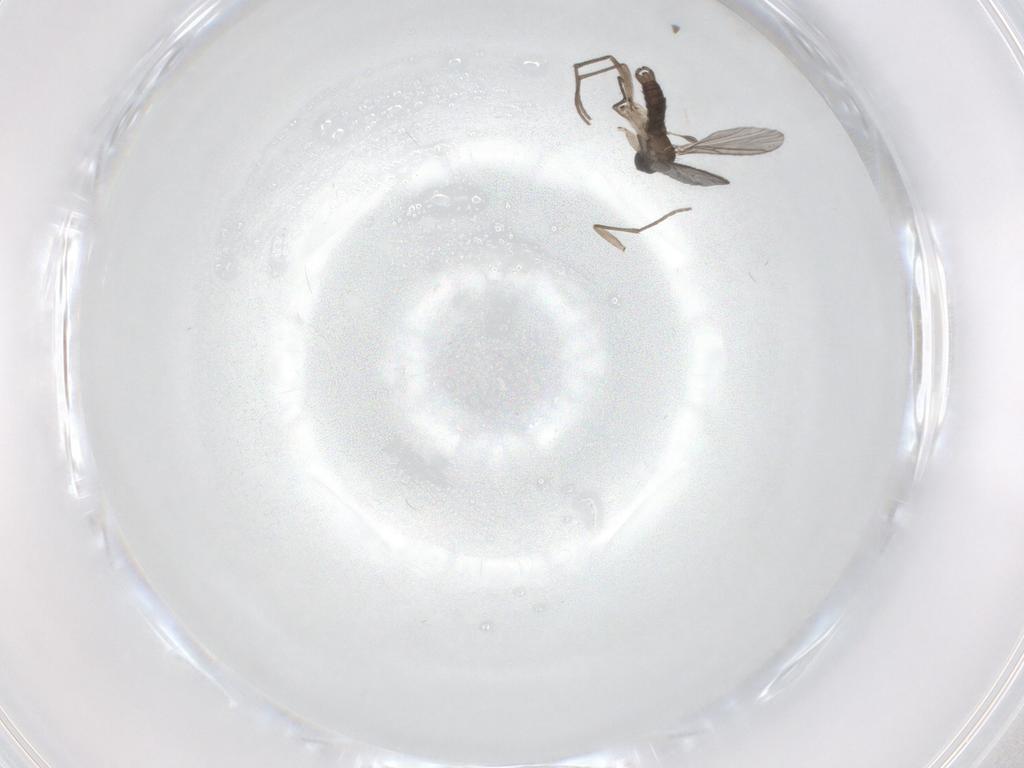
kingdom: Animalia
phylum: Arthropoda
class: Insecta
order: Diptera
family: Sciaridae
